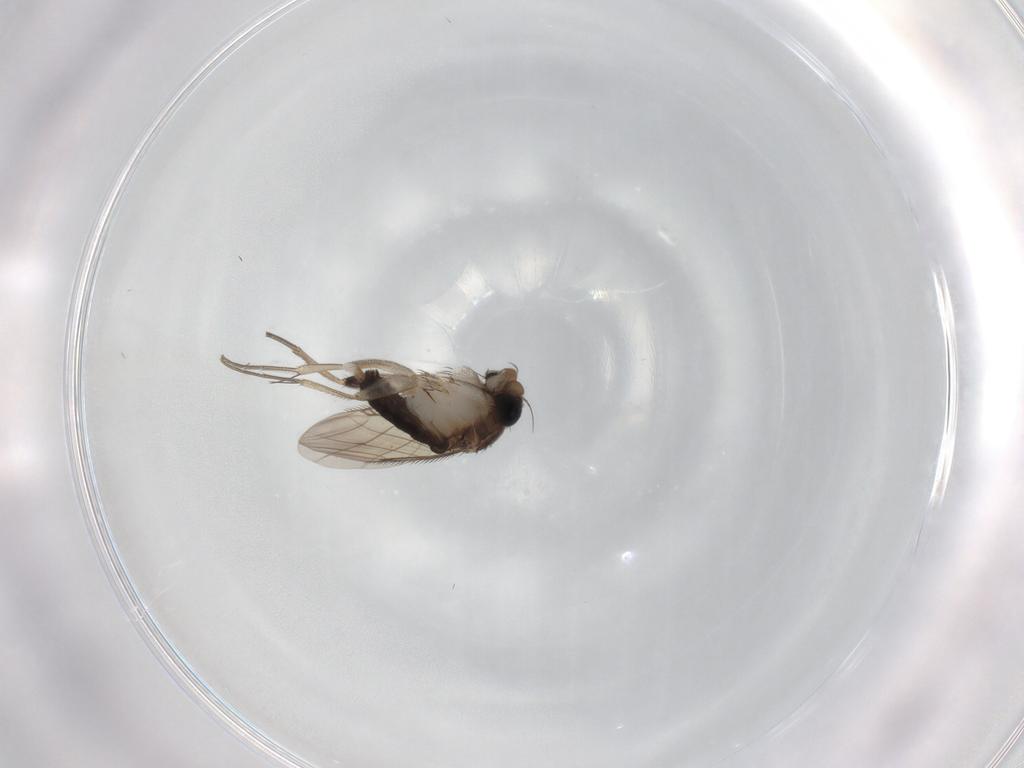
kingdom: Animalia
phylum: Arthropoda
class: Insecta
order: Diptera
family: Phoridae
